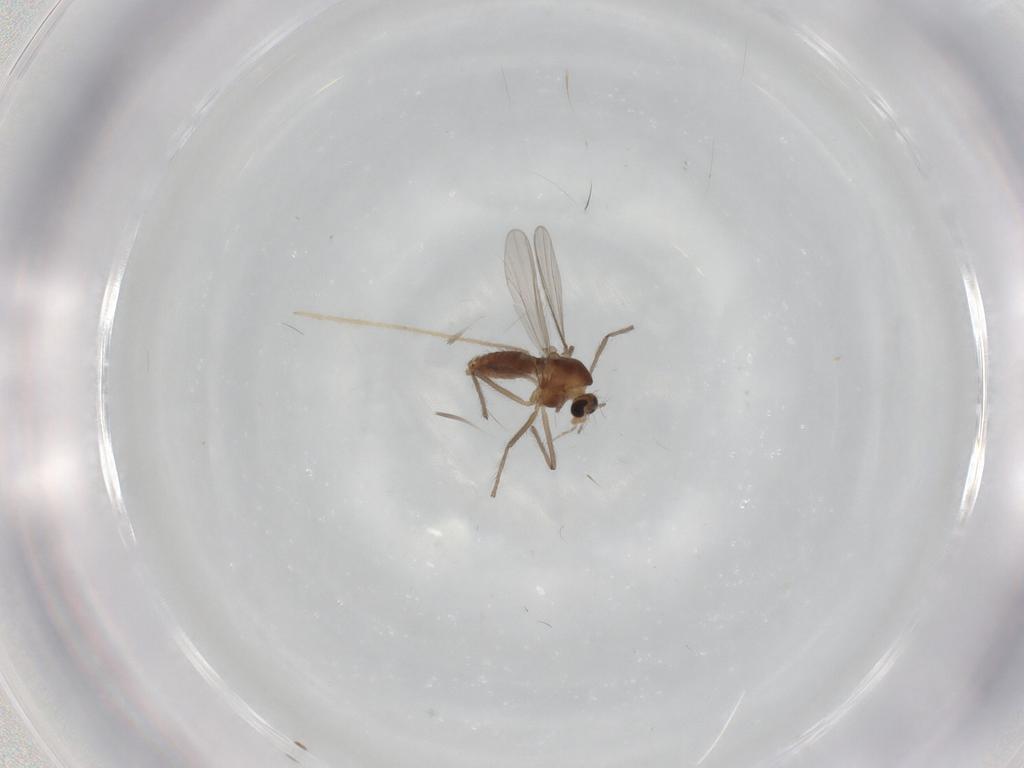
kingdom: Animalia
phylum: Arthropoda
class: Insecta
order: Diptera
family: Chironomidae
